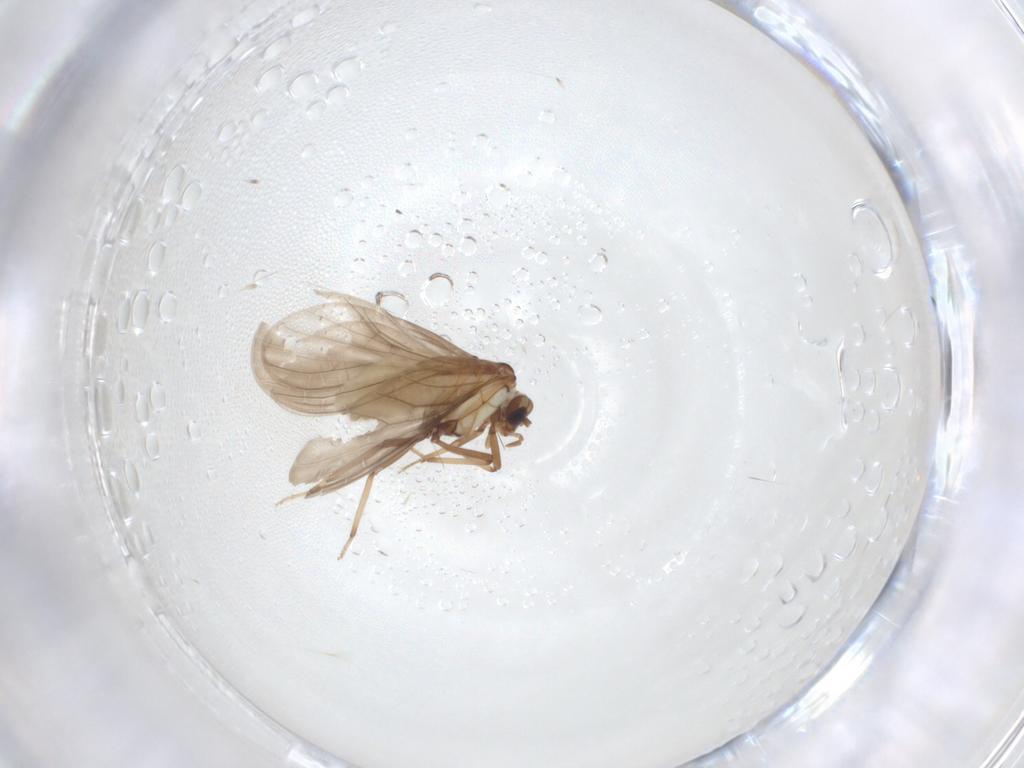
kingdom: Animalia
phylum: Arthropoda
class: Insecta
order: Neuroptera
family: Coniopterygidae
